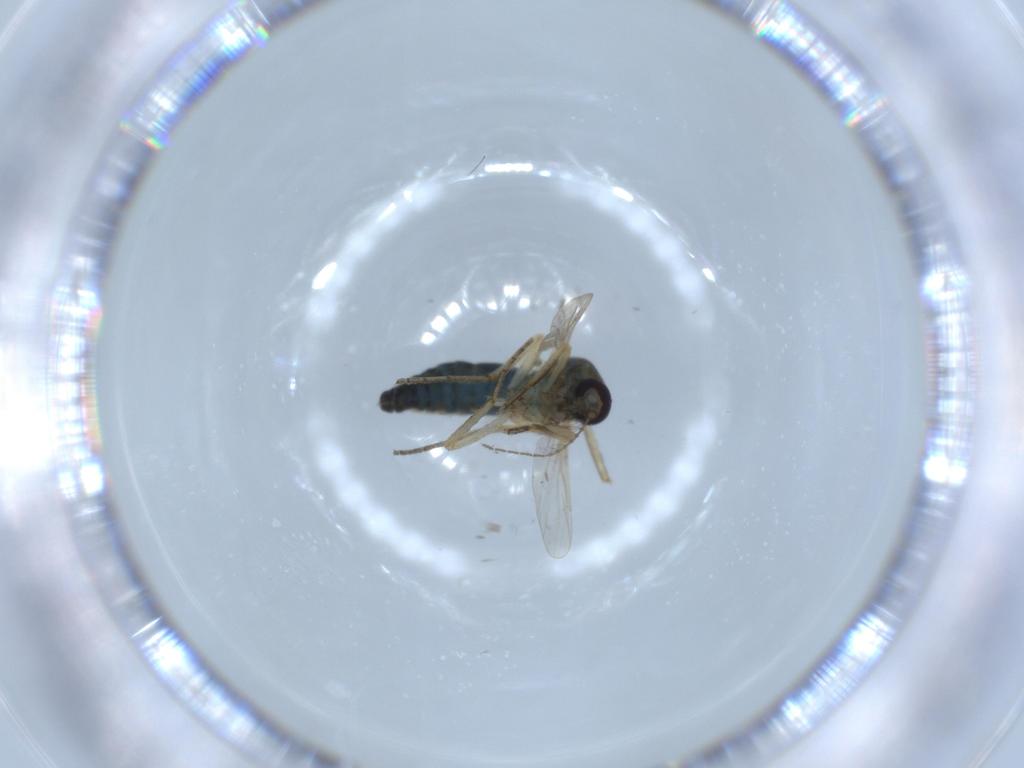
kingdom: Animalia
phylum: Arthropoda
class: Insecta
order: Diptera
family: Ceratopogonidae
